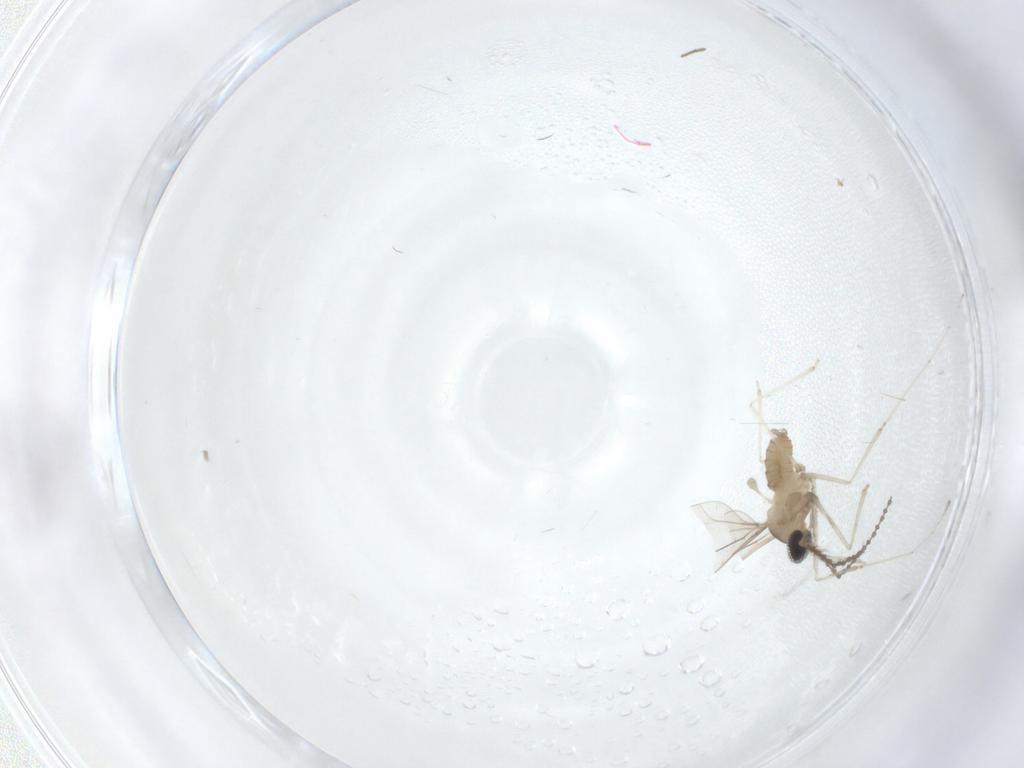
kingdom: Animalia
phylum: Arthropoda
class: Insecta
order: Diptera
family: Cecidomyiidae
